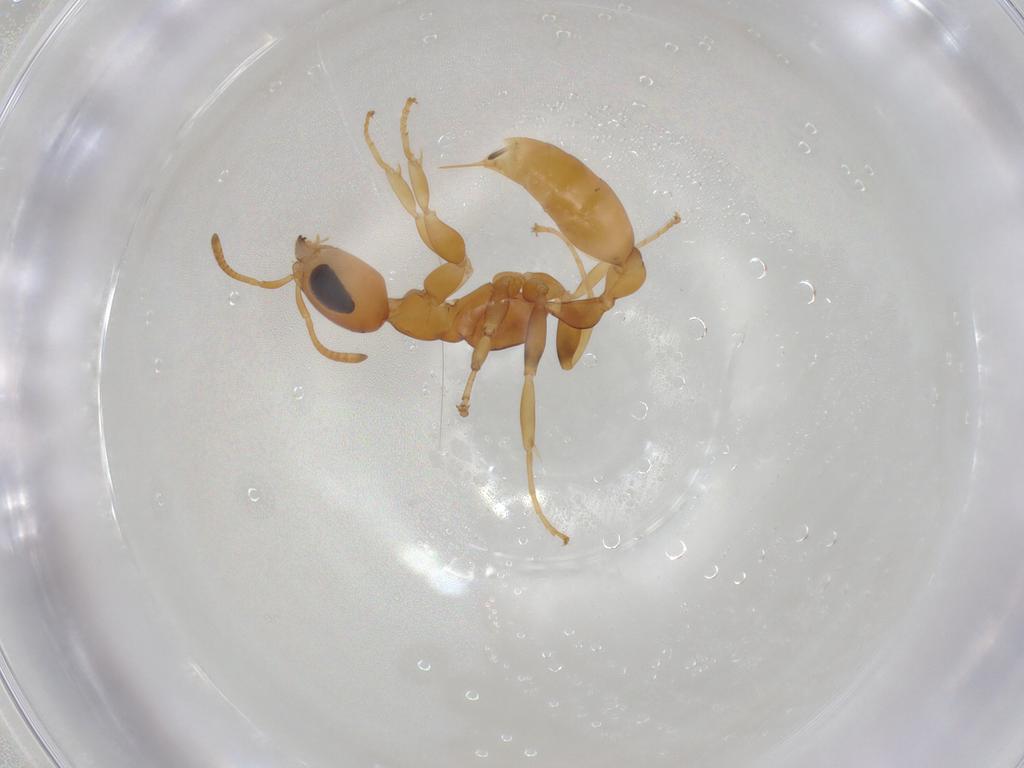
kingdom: Animalia
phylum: Arthropoda
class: Insecta
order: Hymenoptera
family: Formicidae
